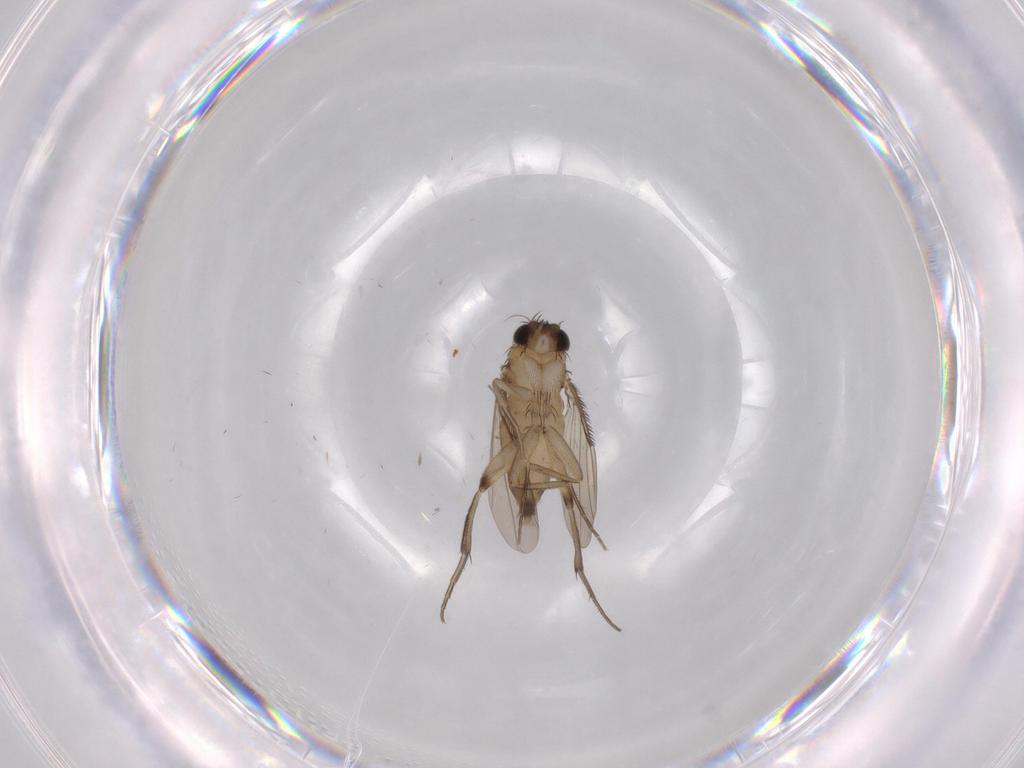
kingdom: Animalia
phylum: Arthropoda
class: Insecta
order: Diptera
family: Phoridae
